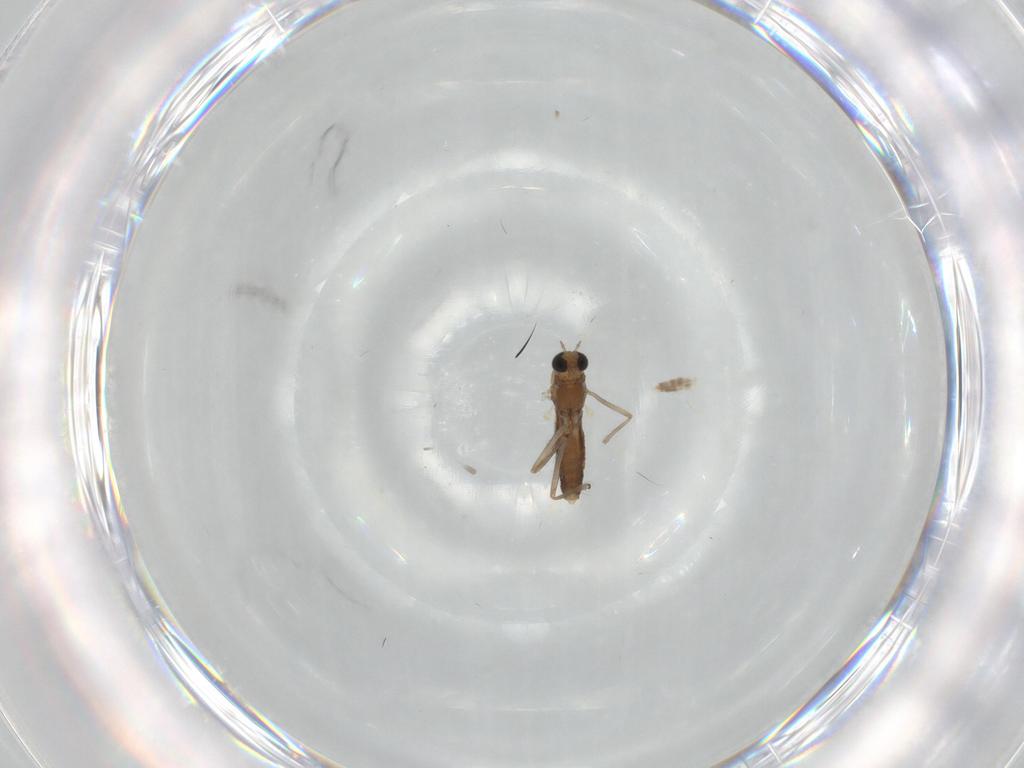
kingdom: Animalia
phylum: Arthropoda
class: Insecta
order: Diptera
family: Chironomidae
